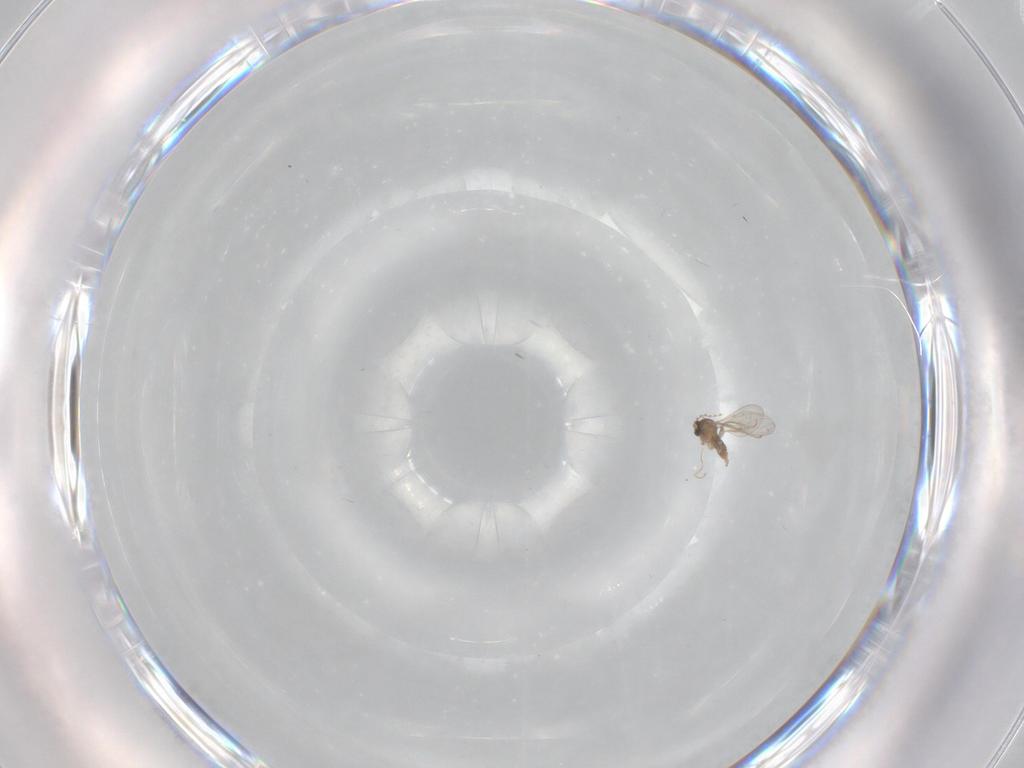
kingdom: Animalia
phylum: Arthropoda
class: Insecta
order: Diptera
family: Cecidomyiidae
